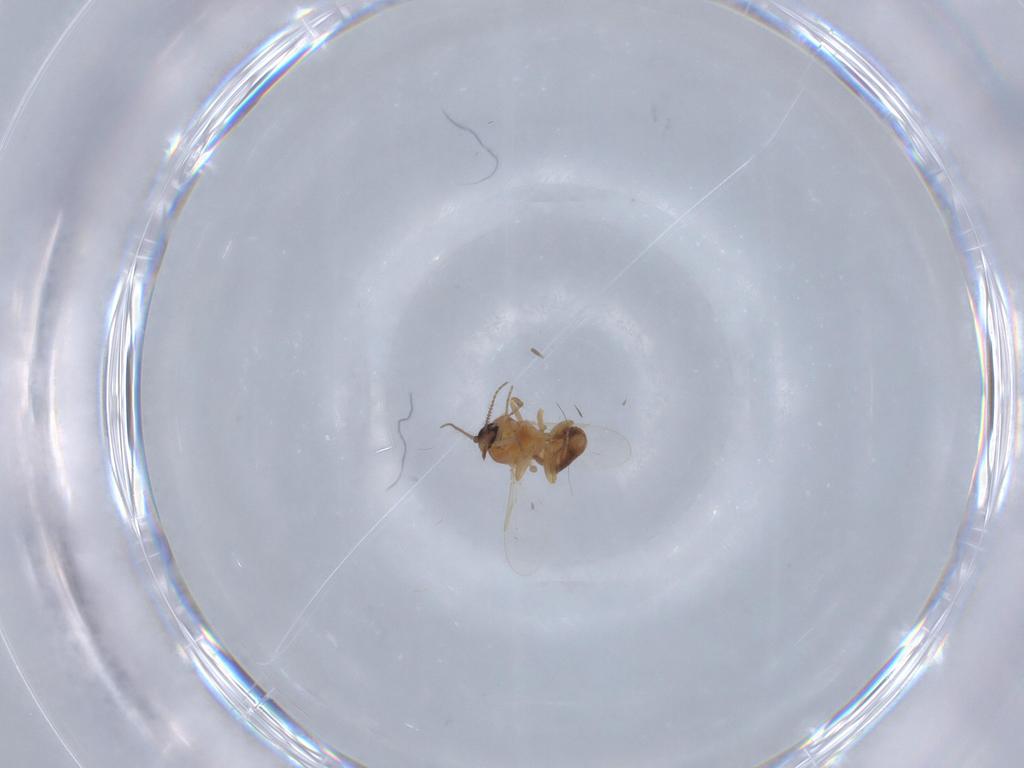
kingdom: Animalia
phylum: Arthropoda
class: Insecta
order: Diptera
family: Ceratopogonidae
